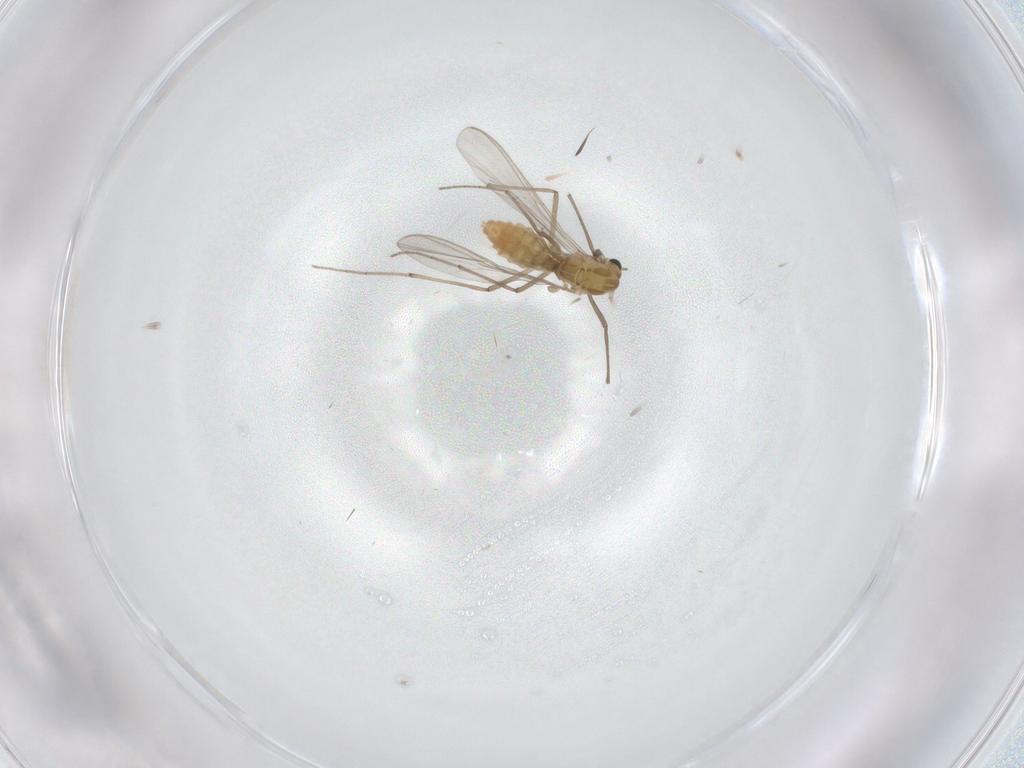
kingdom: Animalia
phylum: Arthropoda
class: Insecta
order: Diptera
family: Chironomidae
